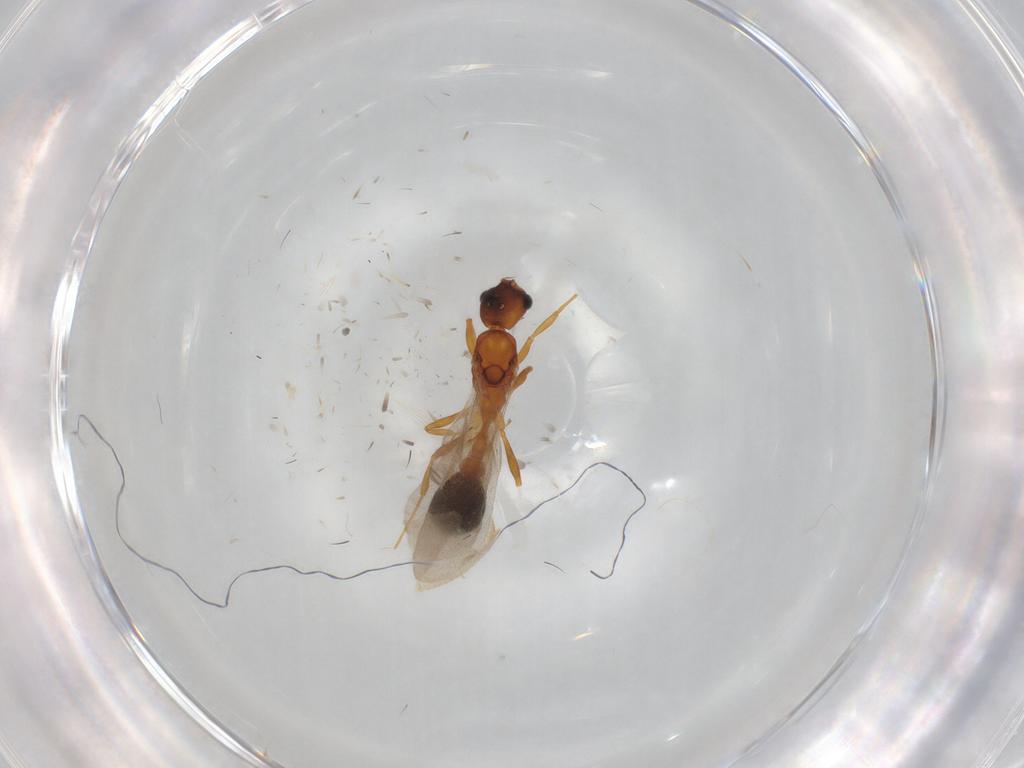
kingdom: Animalia
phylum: Arthropoda
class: Insecta
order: Hymenoptera
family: Formicidae
